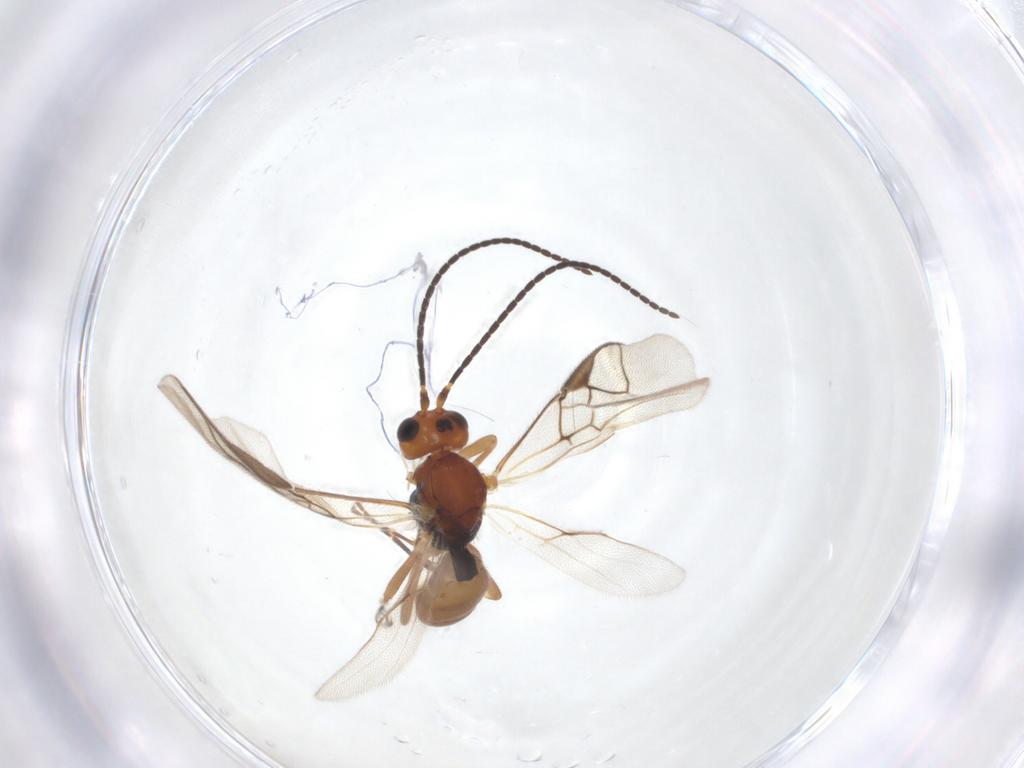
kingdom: Animalia
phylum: Arthropoda
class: Insecta
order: Hymenoptera
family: Braconidae
